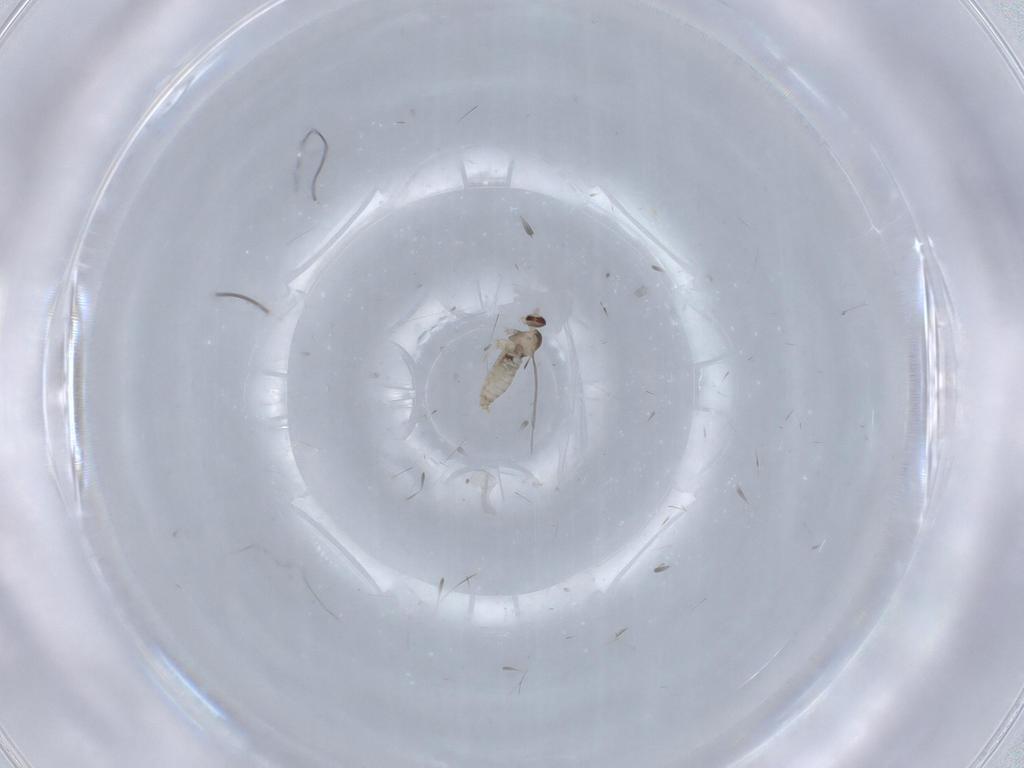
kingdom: Animalia
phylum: Arthropoda
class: Insecta
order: Diptera
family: Cecidomyiidae
